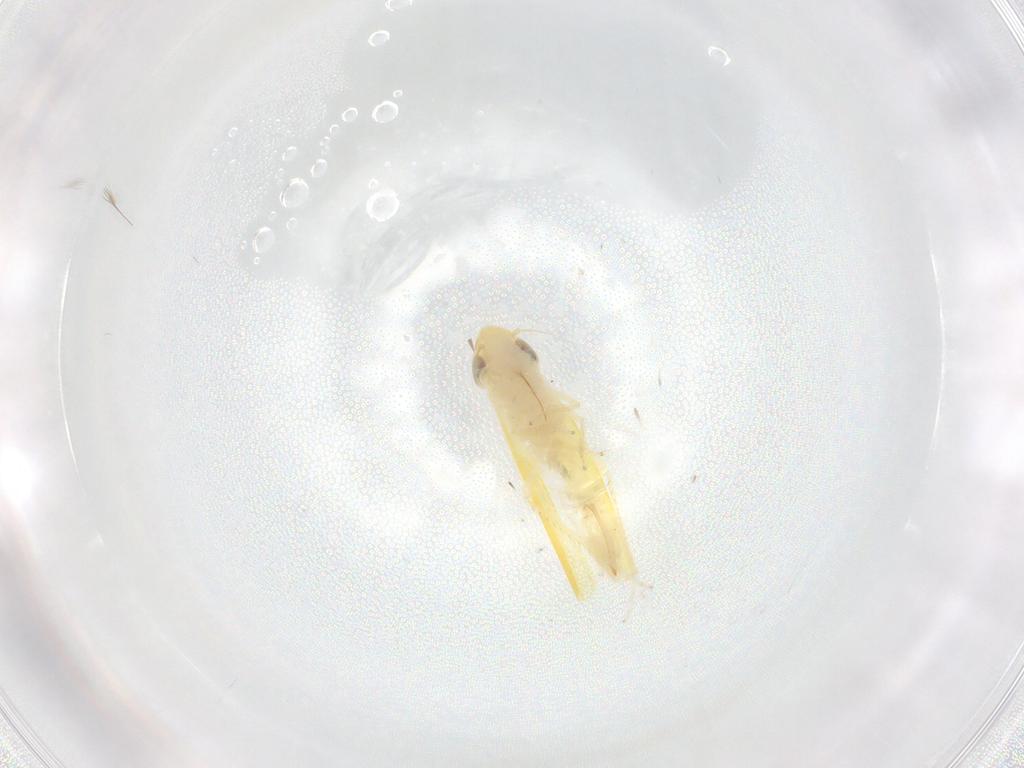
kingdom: Animalia
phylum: Arthropoda
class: Insecta
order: Hemiptera
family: Cicadellidae
